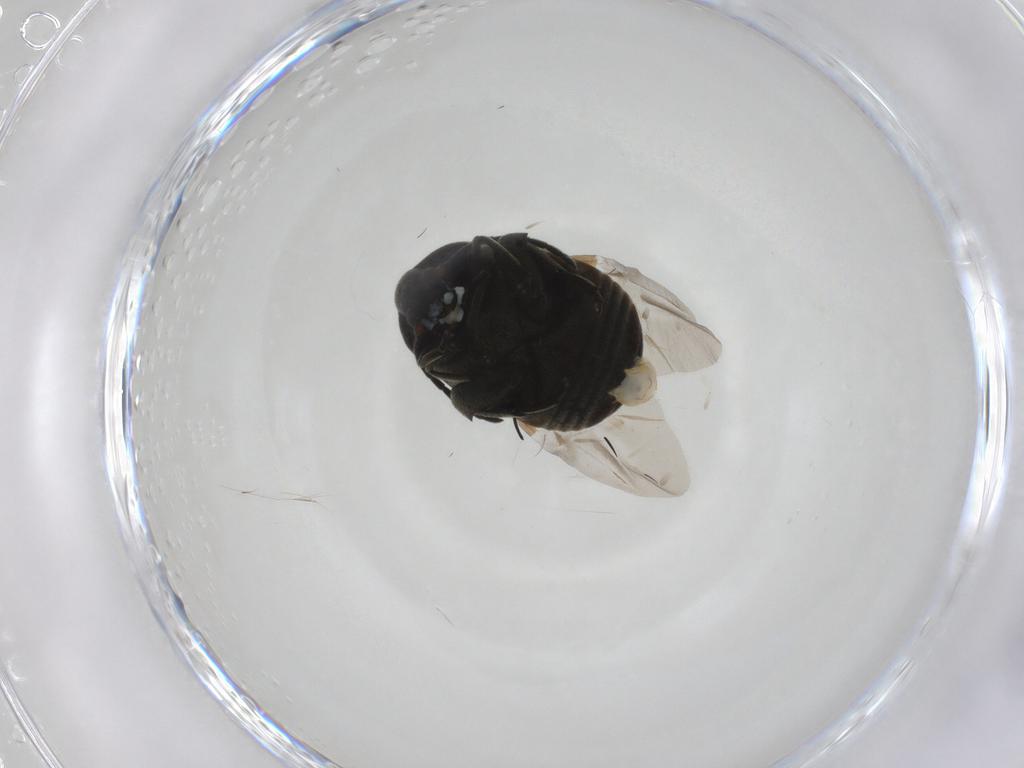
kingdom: Animalia
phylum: Arthropoda
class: Insecta
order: Coleoptera
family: Chrysomelidae
